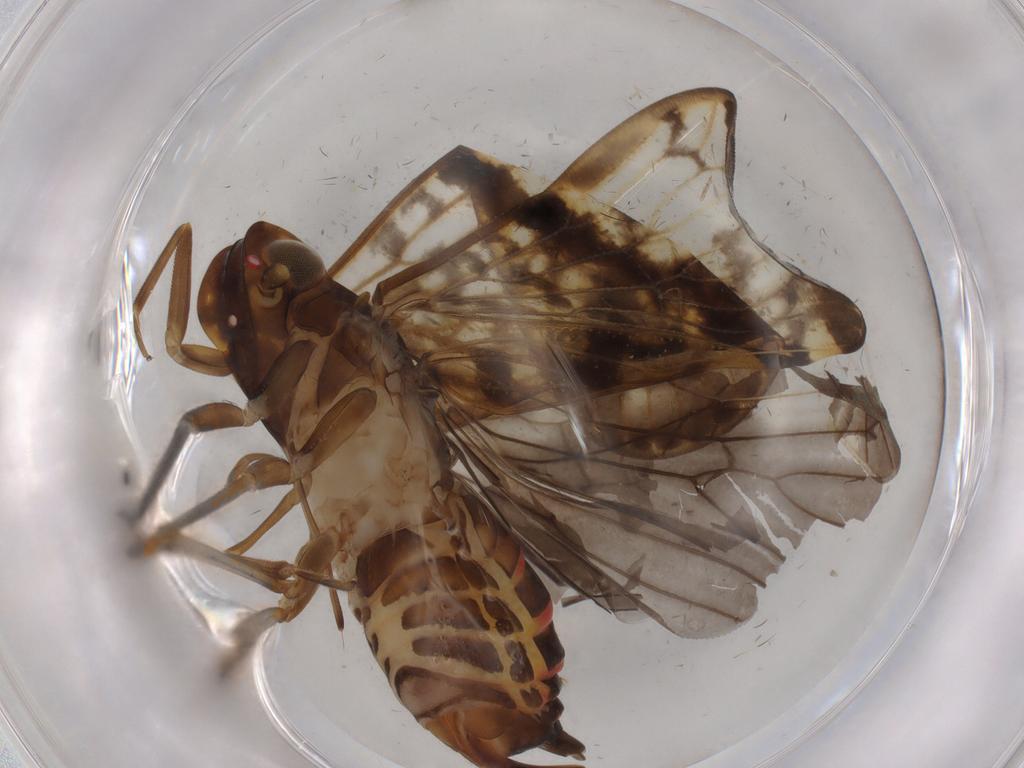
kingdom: Animalia
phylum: Arthropoda
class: Insecta
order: Hemiptera
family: Cixiidae
